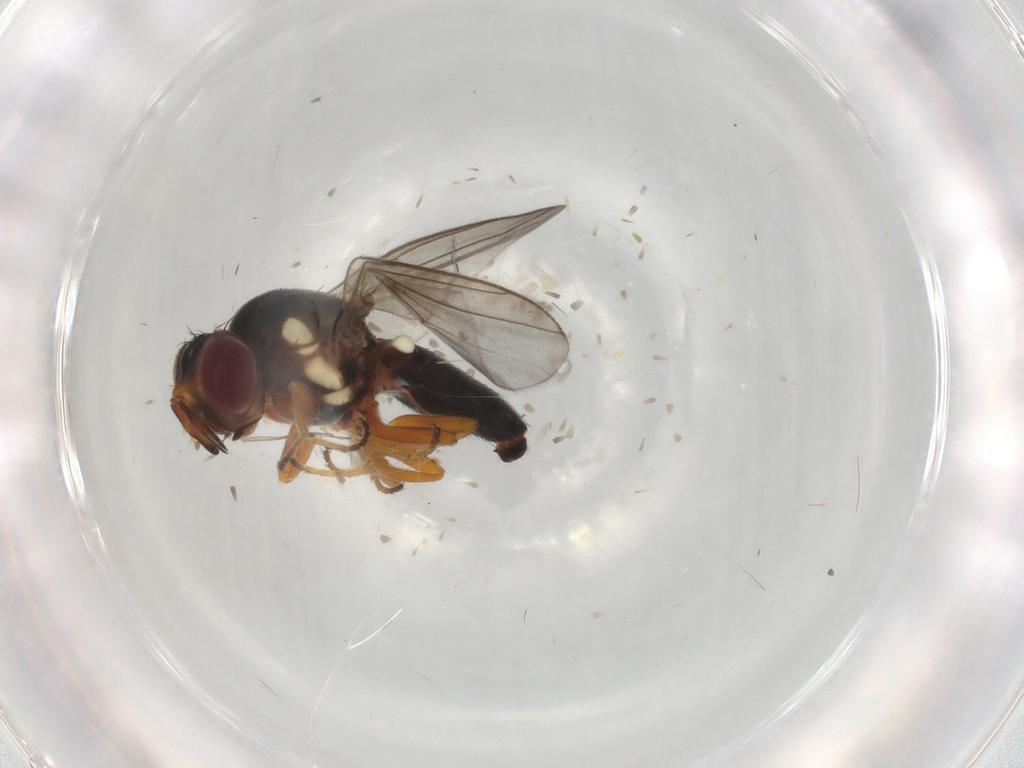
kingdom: Animalia
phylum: Arthropoda
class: Insecta
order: Diptera
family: Chloropidae
